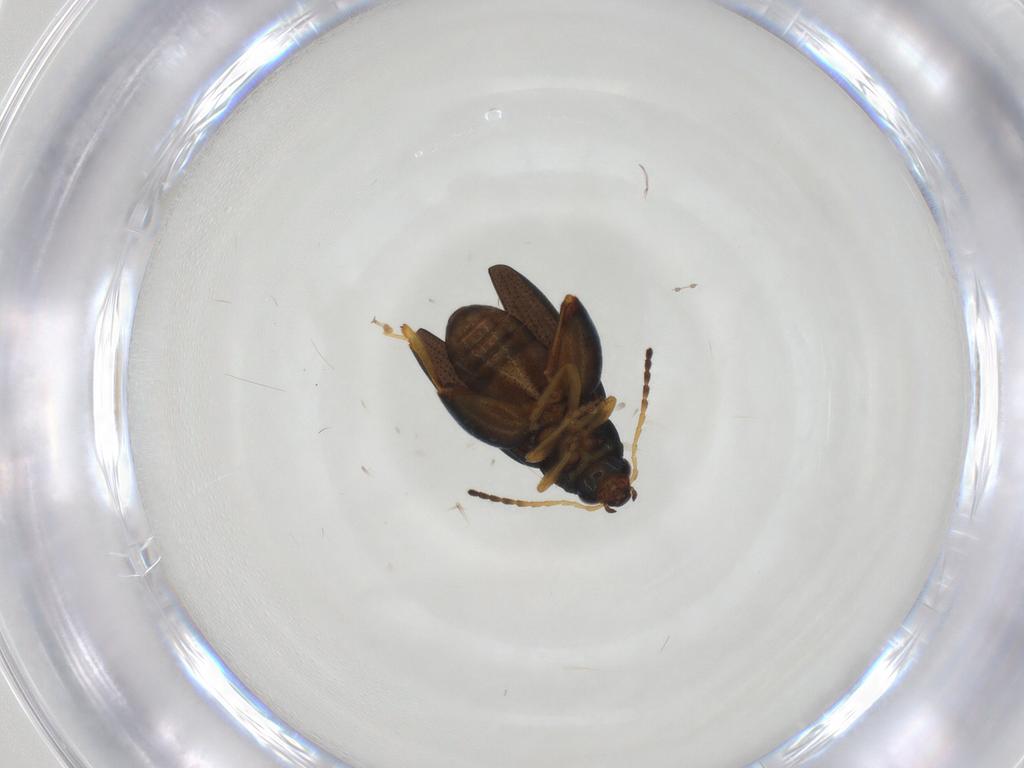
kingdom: Animalia
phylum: Arthropoda
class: Insecta
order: Coleoptera
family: Chrysomelidae
